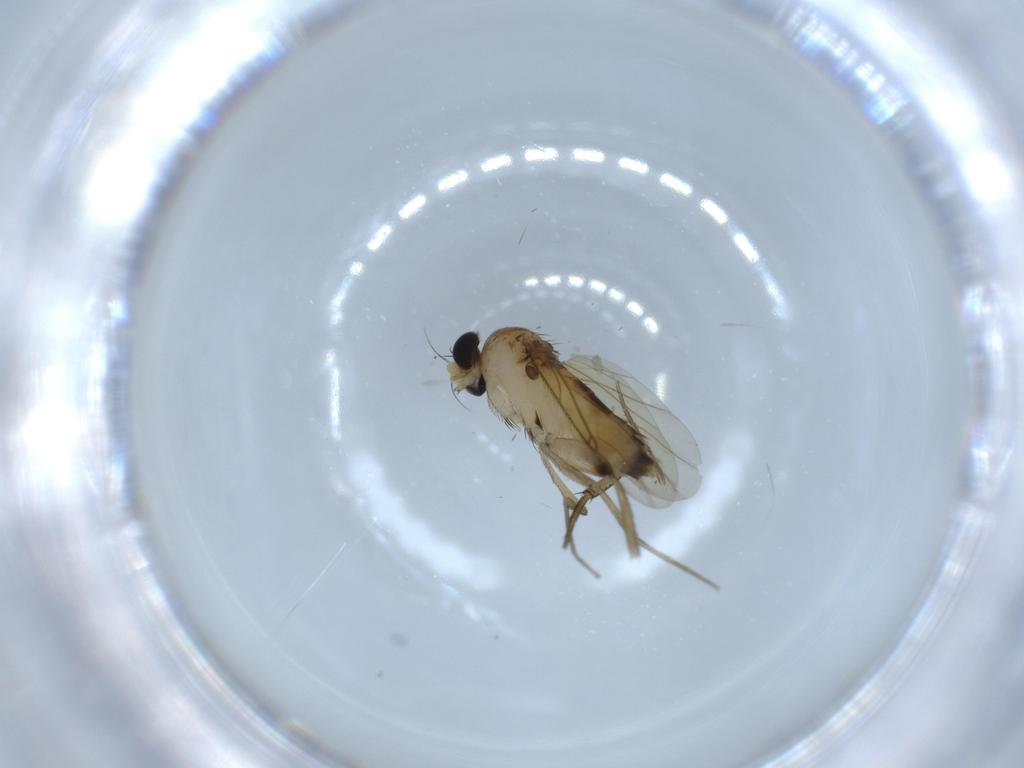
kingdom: Animalia
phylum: Arthropoda
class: Insecta
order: Diptera
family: Phoridae
